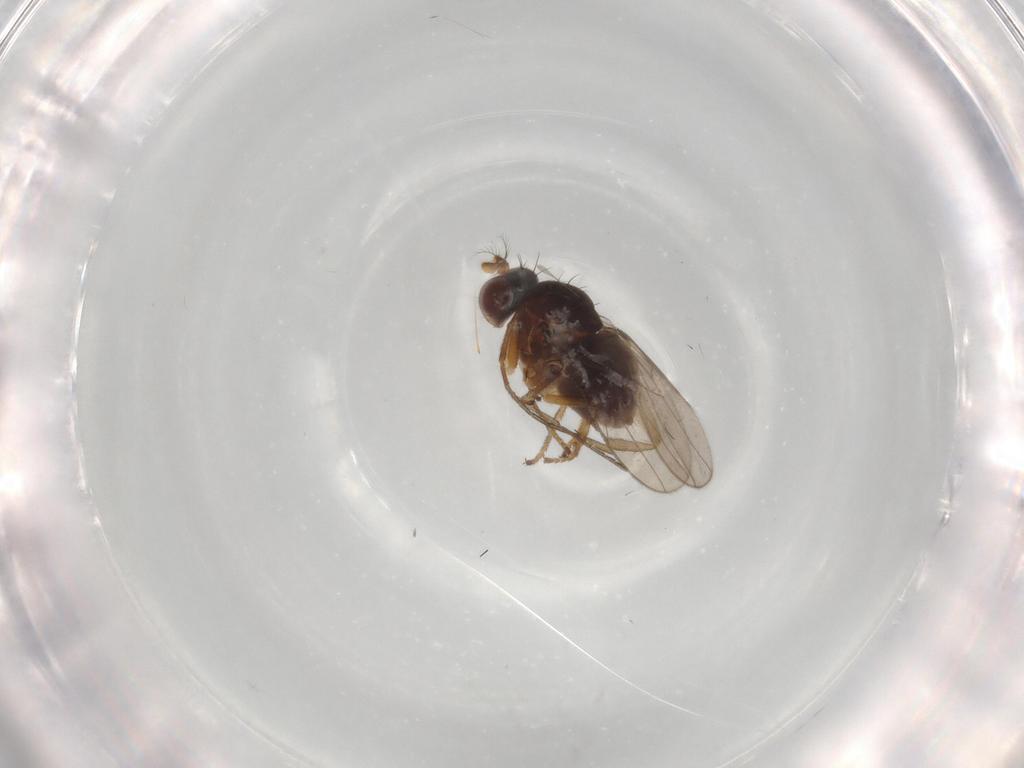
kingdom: Animalia
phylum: Arthropoda
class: Insecta
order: Diptera
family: Ephydridae
